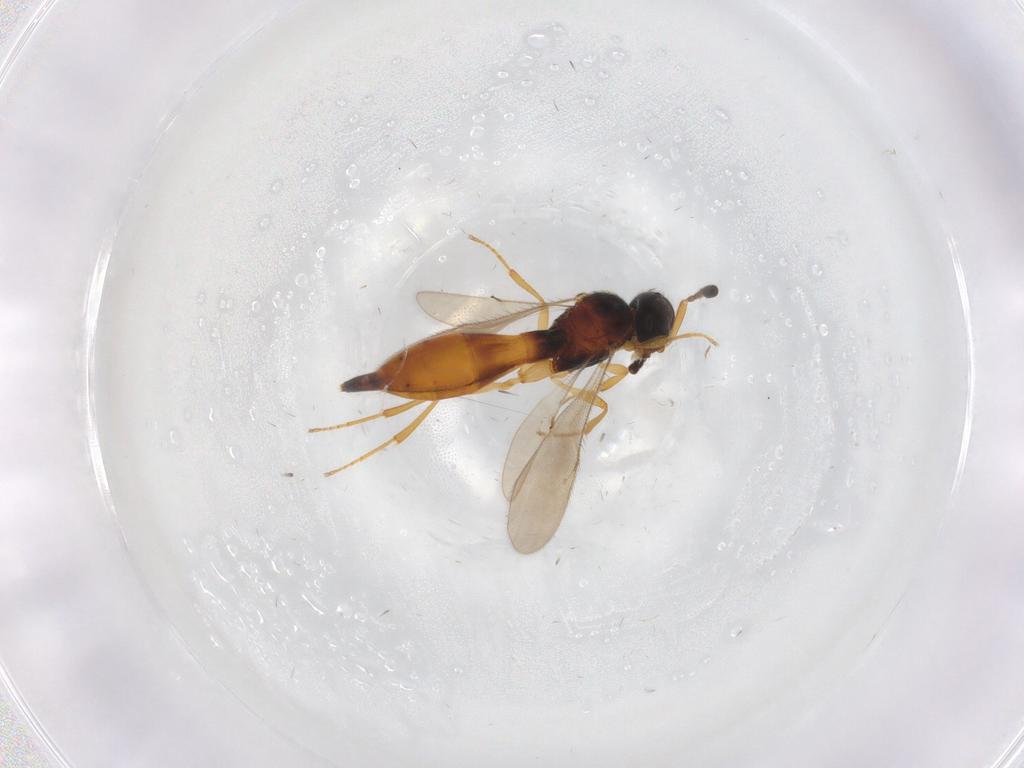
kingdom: Animalia
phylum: Arthropoda
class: Insecta
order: Hymenoptera
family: Scelionidae
